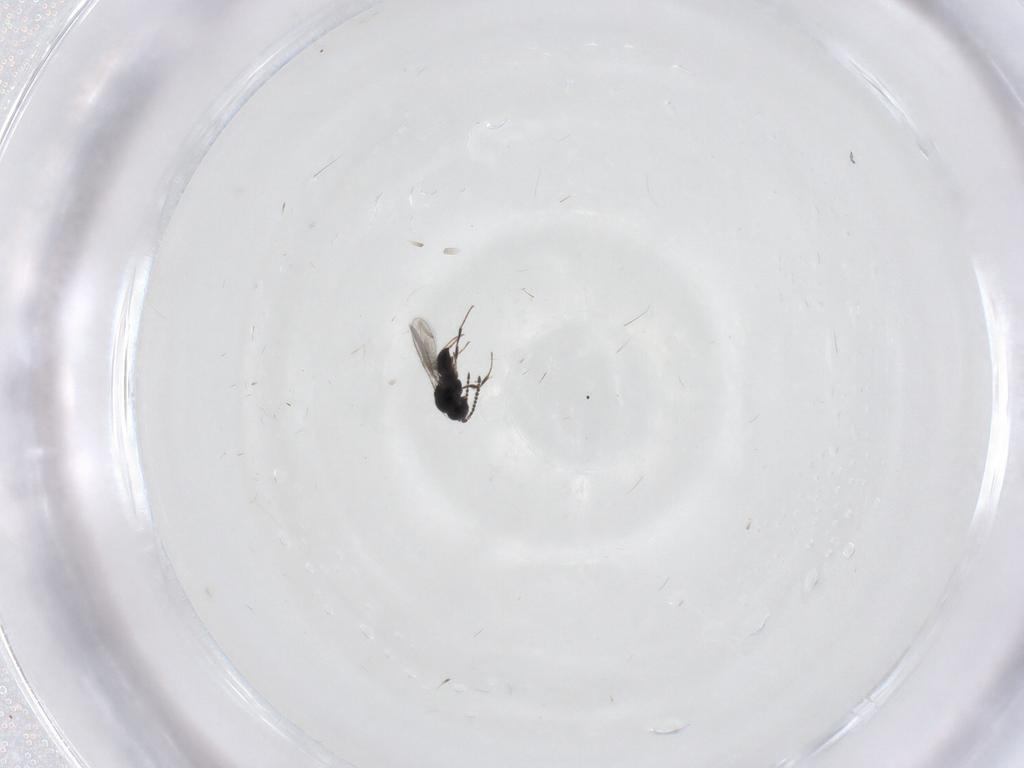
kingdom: Animalia
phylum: Arthropoda
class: Insecta
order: Hymenoptera
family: Scelionidae
